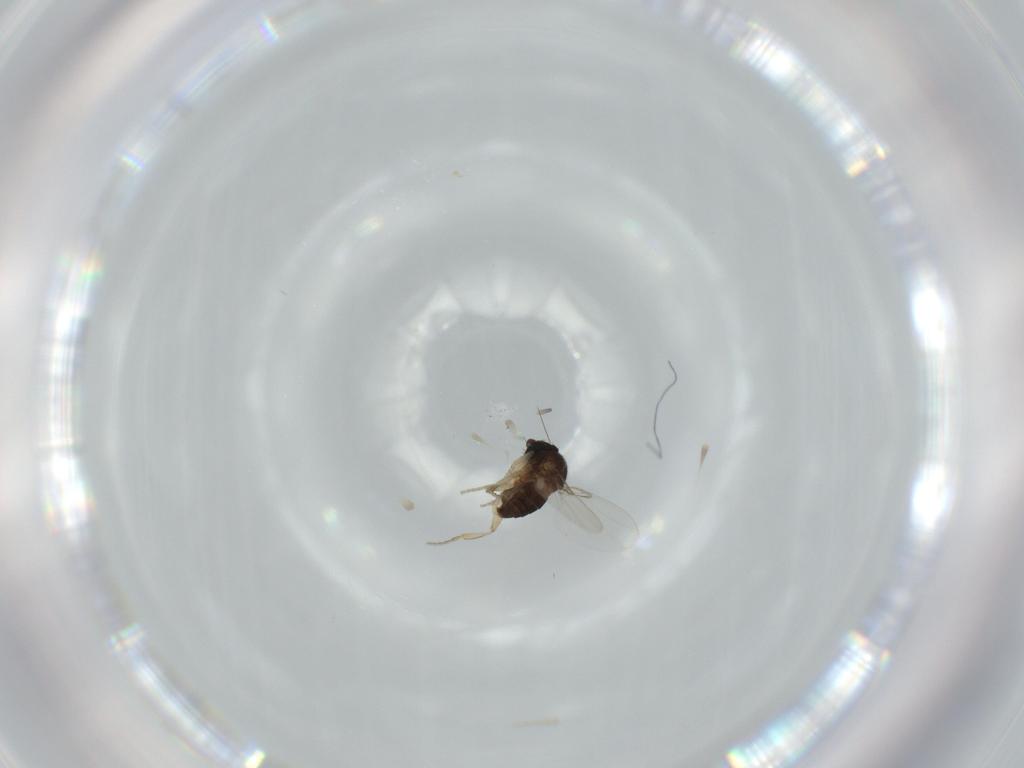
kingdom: Animalia
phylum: Arthropoda
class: Insecta
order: Diptera
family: Phoridae
